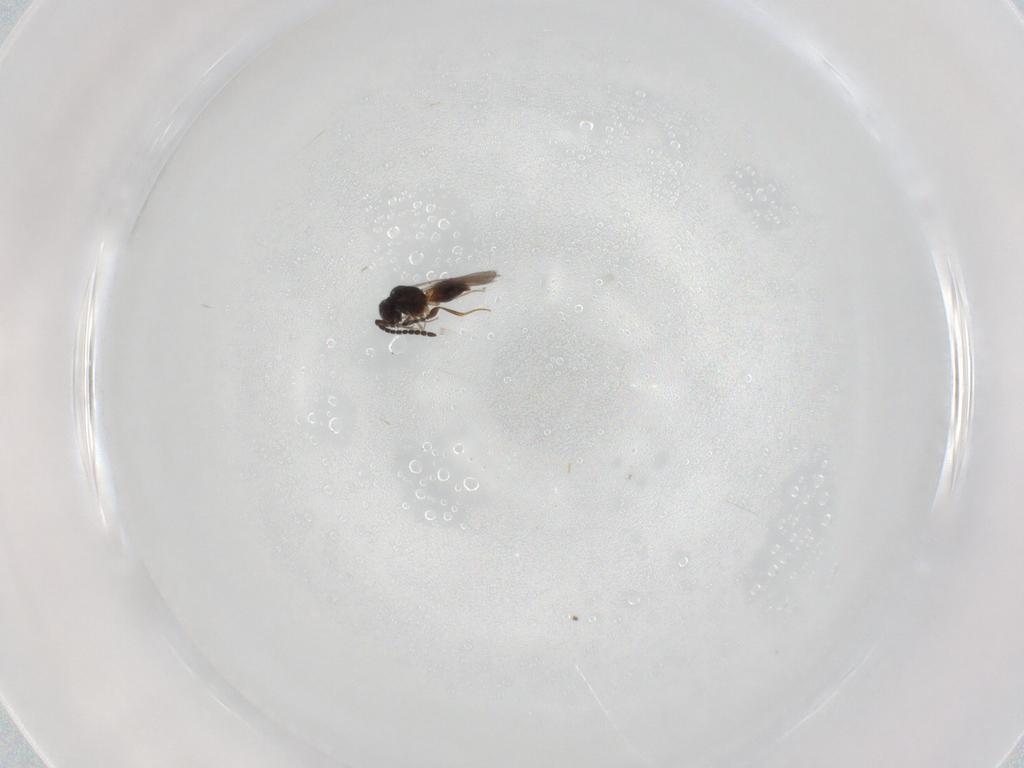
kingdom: Animalia
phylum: Arthropoda
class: Insecta
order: Hymenoptera
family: Ceraphronidae
